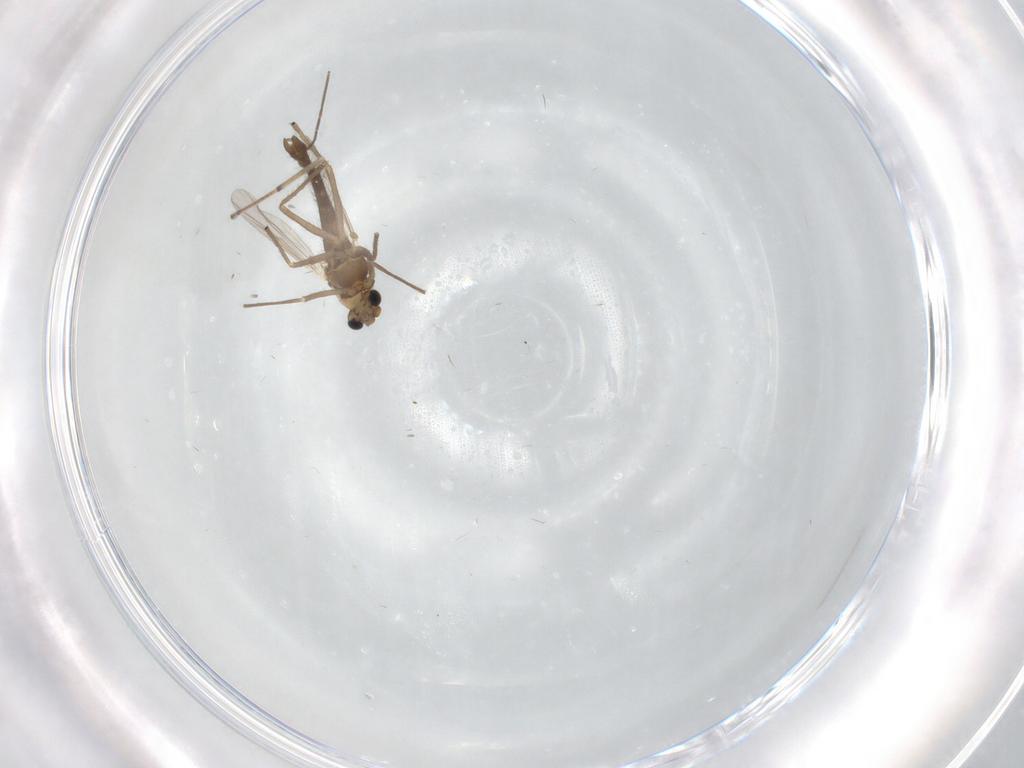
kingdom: Animalia
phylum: Arthropoda
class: Insecta
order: Diptera
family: Chironomidae
